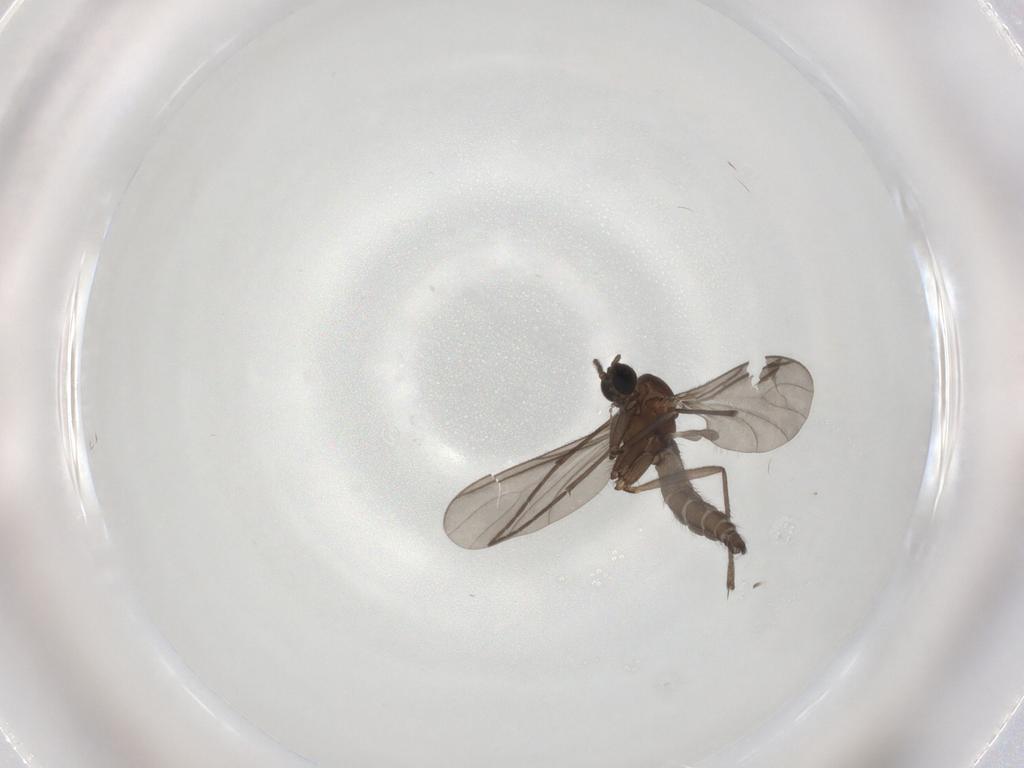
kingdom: Animalia
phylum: Arthropoda
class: Insecta
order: Diptera
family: Sciaridae
